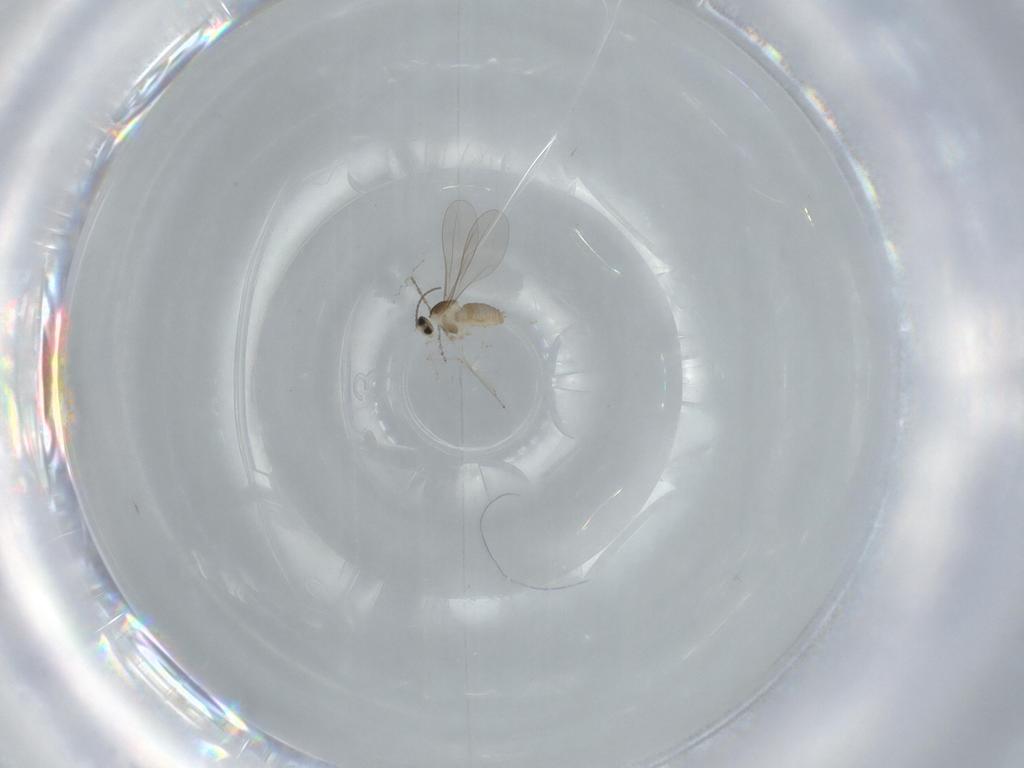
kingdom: Animalia
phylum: Arthropoda
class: Insecta
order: Diptera
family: Cecidomyiidae
